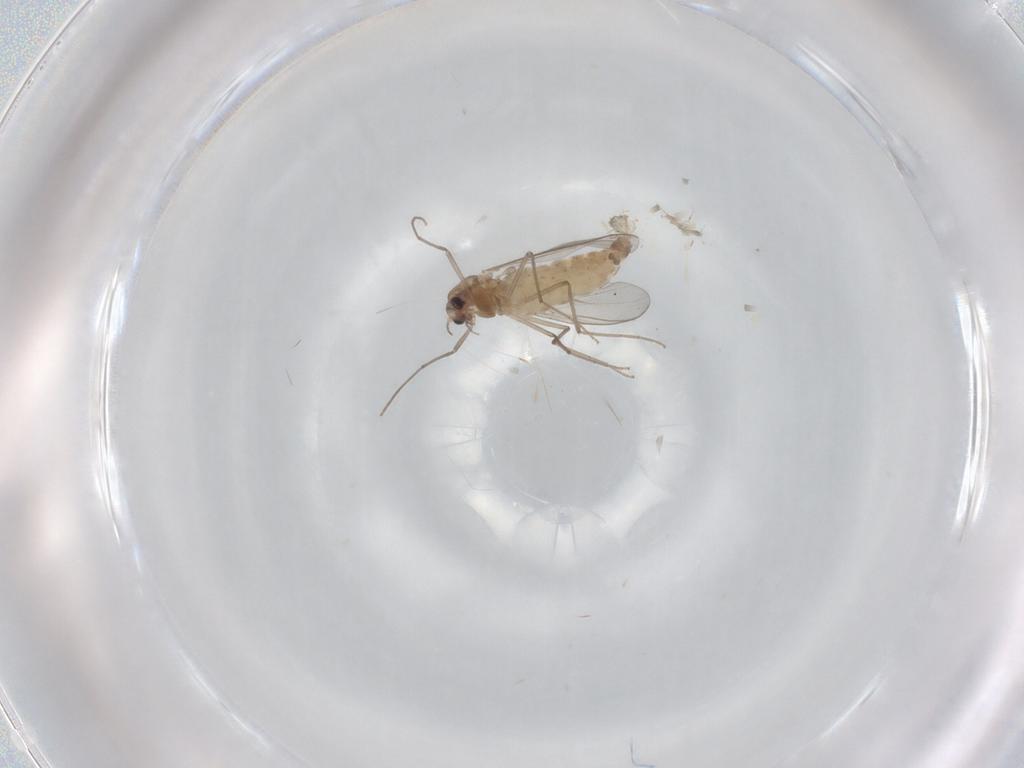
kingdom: Animalia
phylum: Arthropoda
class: Insecta
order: Diptera
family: Chironomidae
